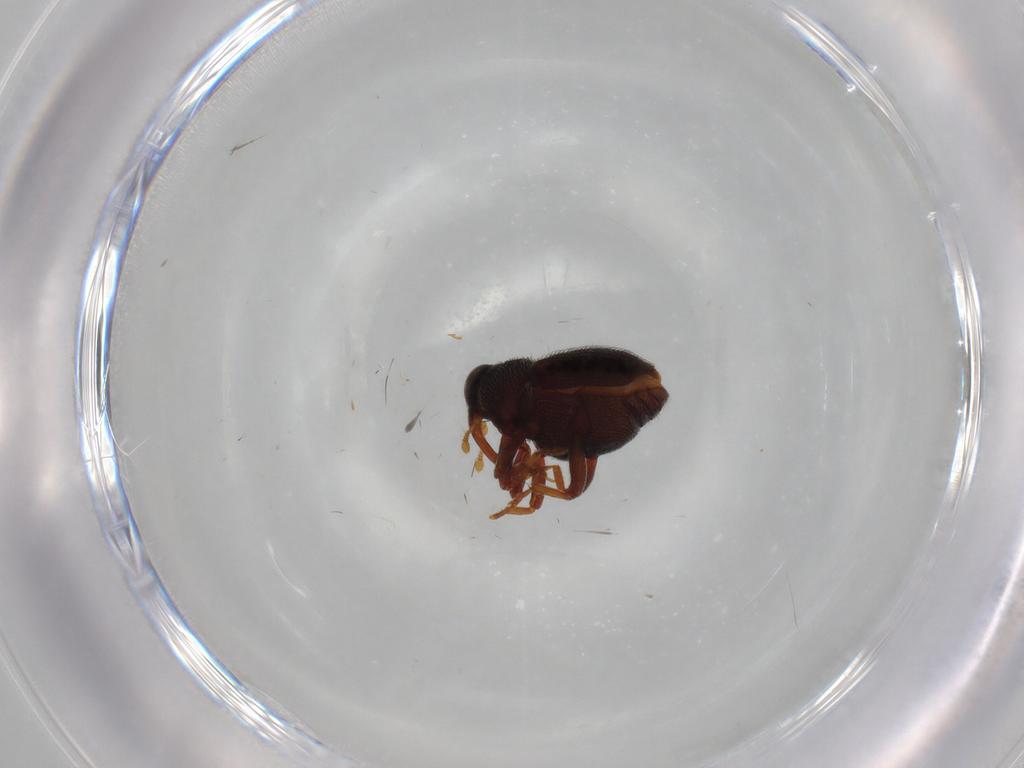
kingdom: Animalia
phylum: Arthropoda
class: Insecta
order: Coleoptera
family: Curculionidae
